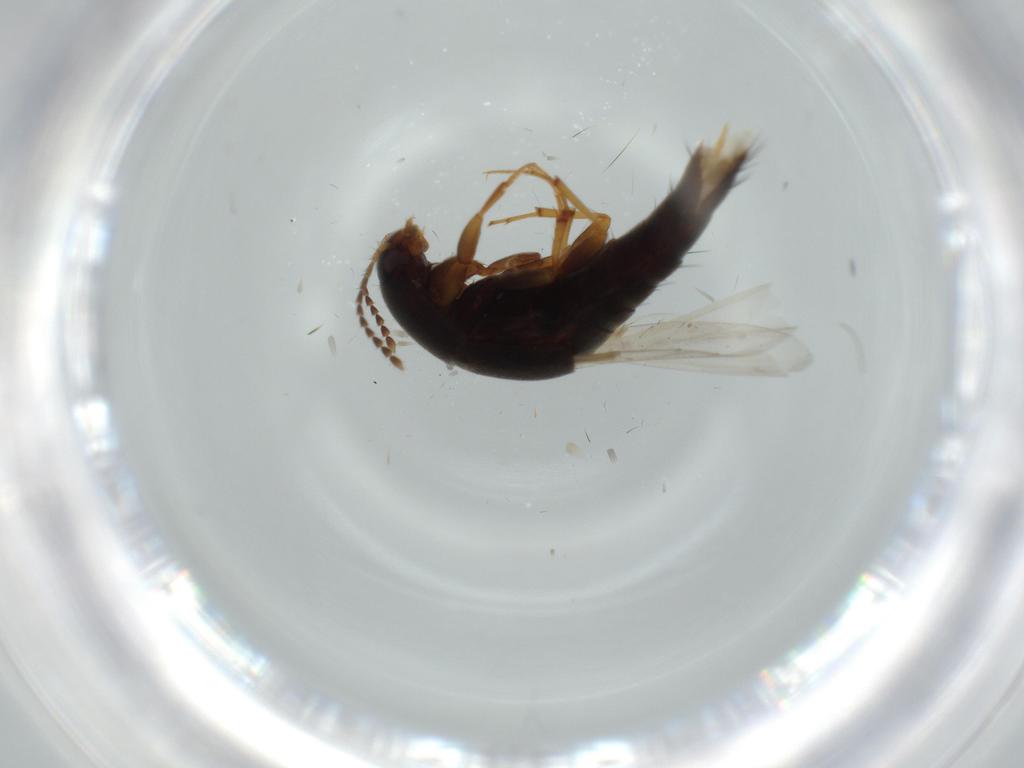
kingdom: Animalia
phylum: Arthropoda
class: Insecta
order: Coleoptera
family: Staphylinidae
